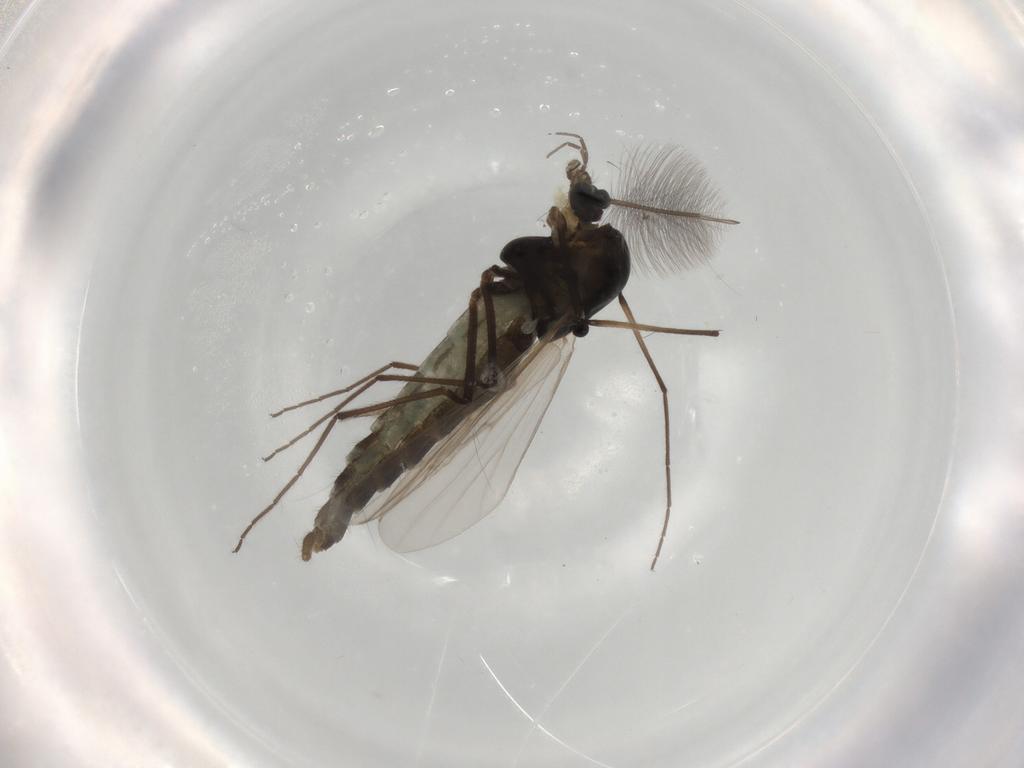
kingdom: Animalia
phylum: Arthropoda
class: Insecta
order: Diptera
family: Chironomidae
